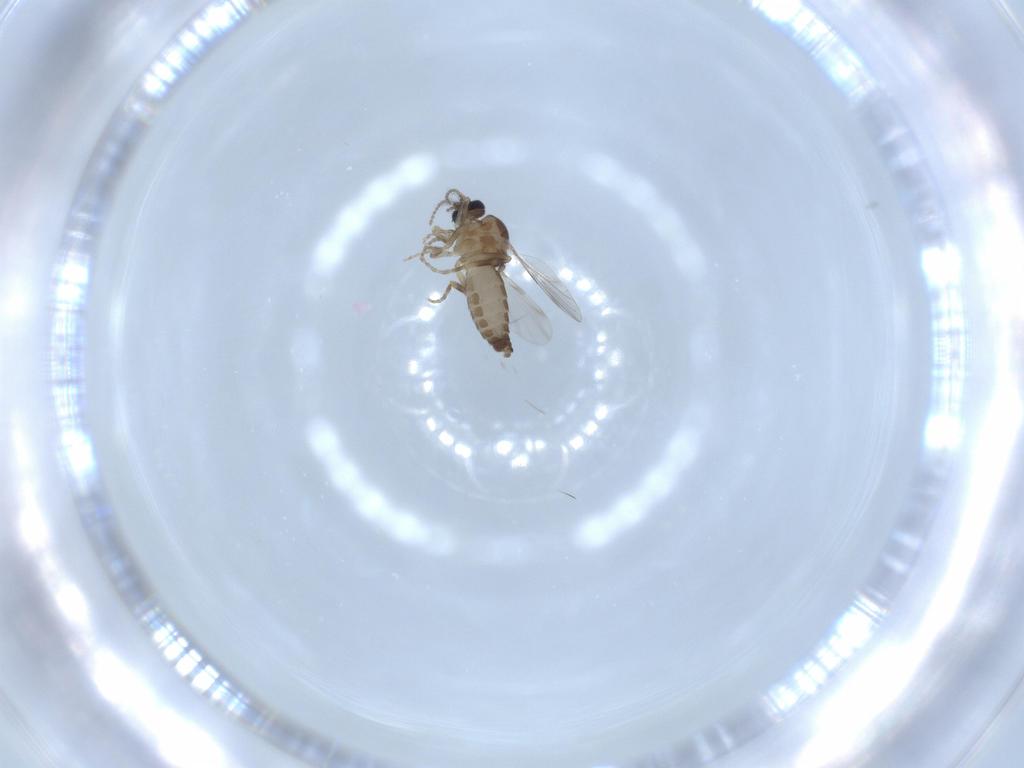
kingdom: Animalia
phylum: Arthropoda
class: Insecta
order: Diptera
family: Ceratopogonidae
